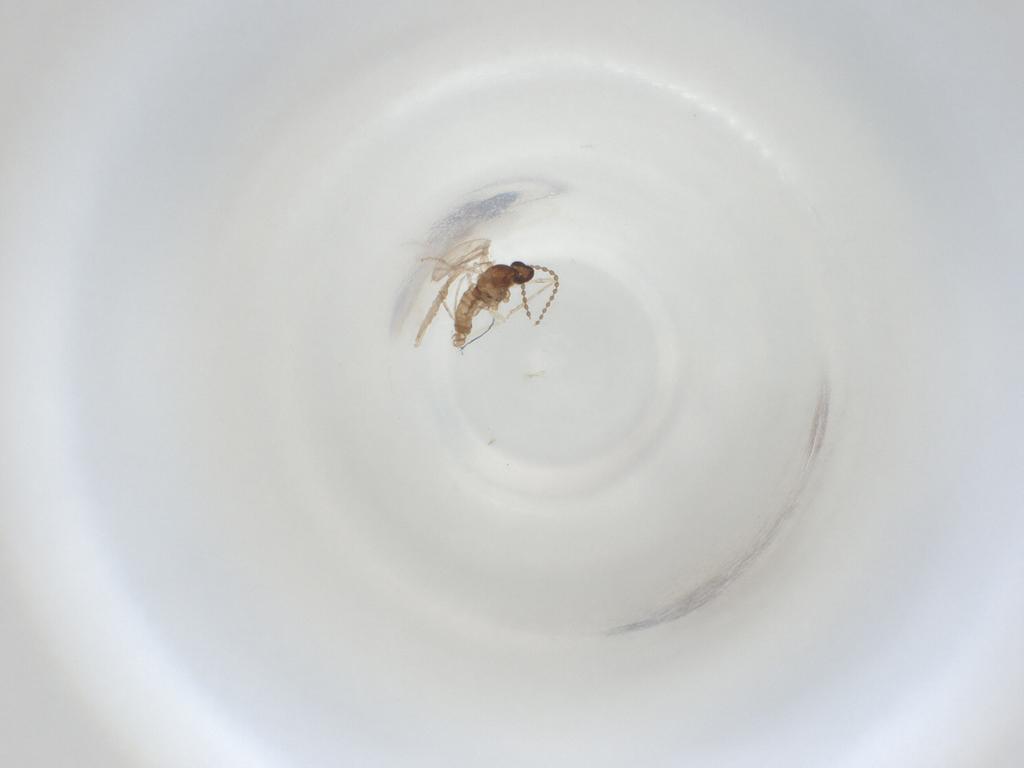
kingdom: Animalia
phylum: Arthropoda
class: Insecta
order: Diptera
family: Cecidomyiidae
